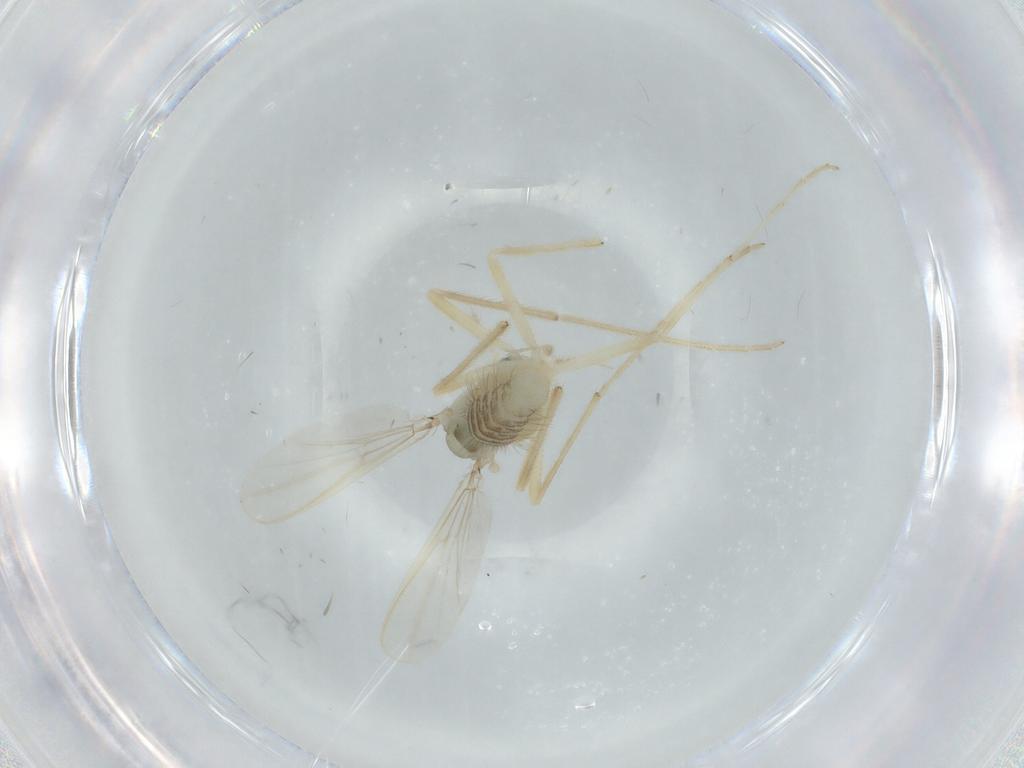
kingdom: Animalia
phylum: Arthropoda
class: Insecta
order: Diptera
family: Chironomidae
